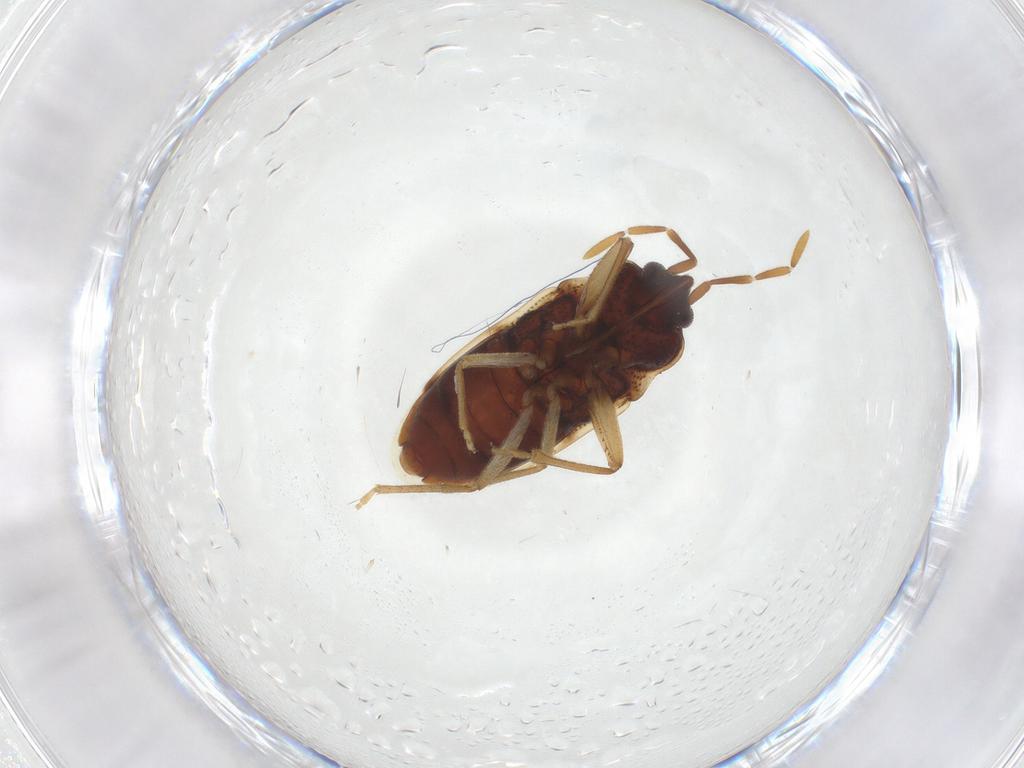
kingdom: Animalia
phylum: Arthropoda
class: Insecta
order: Hemiptera
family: Rhyparochromidae
